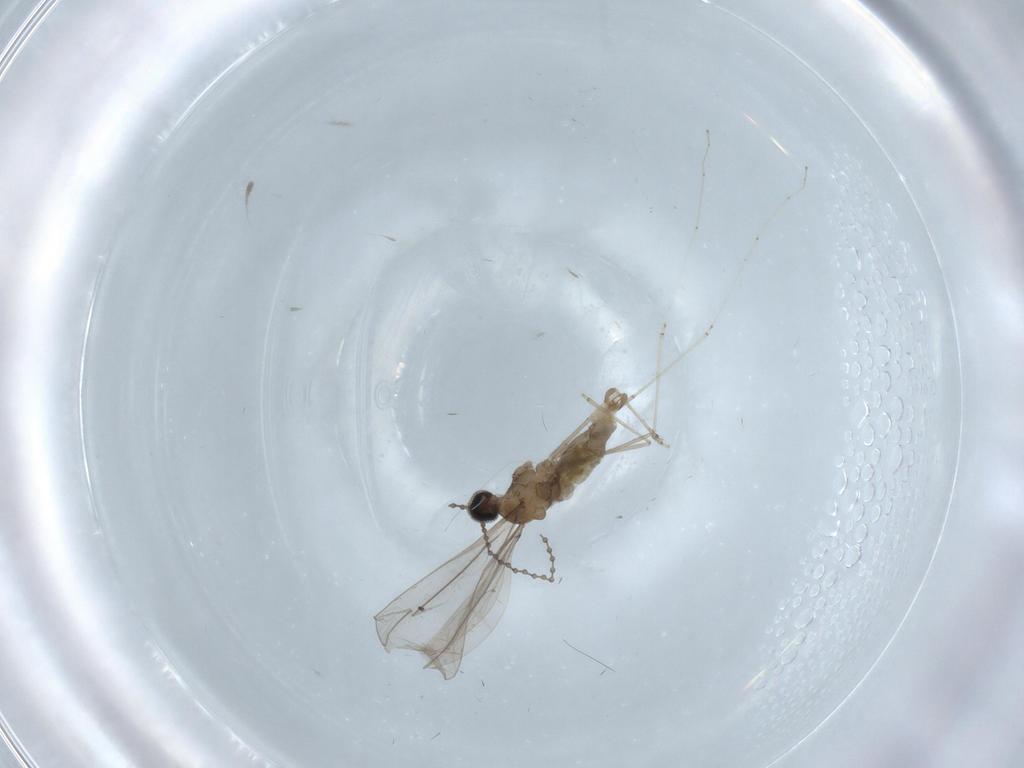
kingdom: Animalia
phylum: Arthropoda
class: Insecta
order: Diptera
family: Cecidomyiidae
